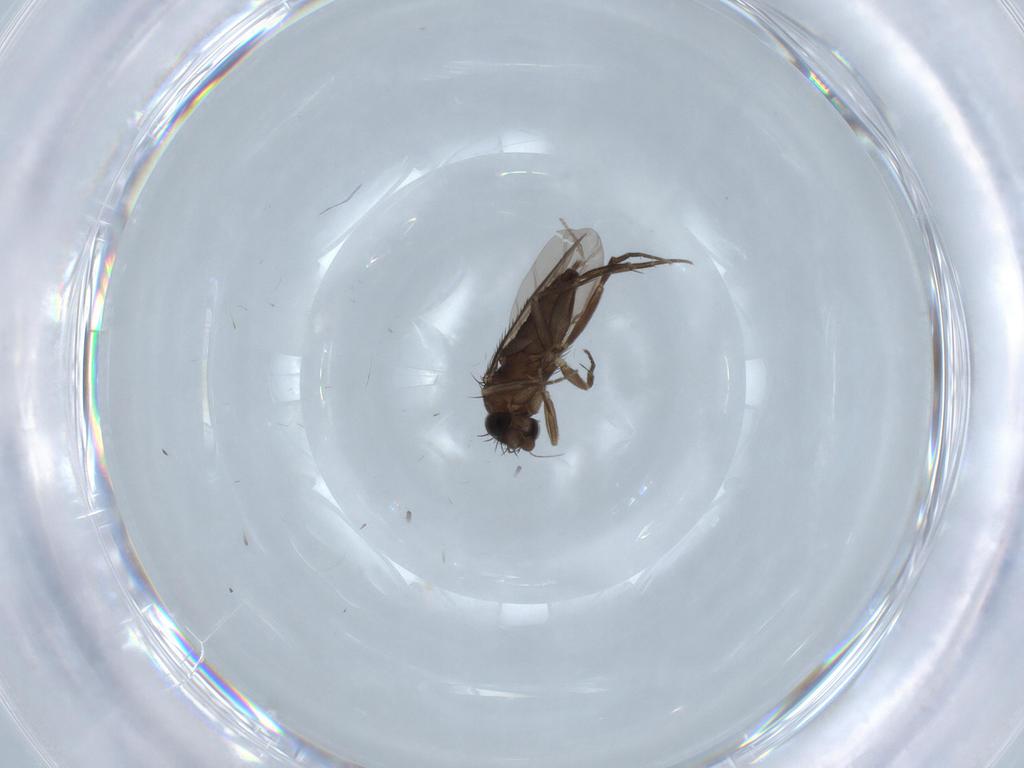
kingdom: Animalia
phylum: Arthropoda
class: Insecta
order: Diptera
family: Phoridae
